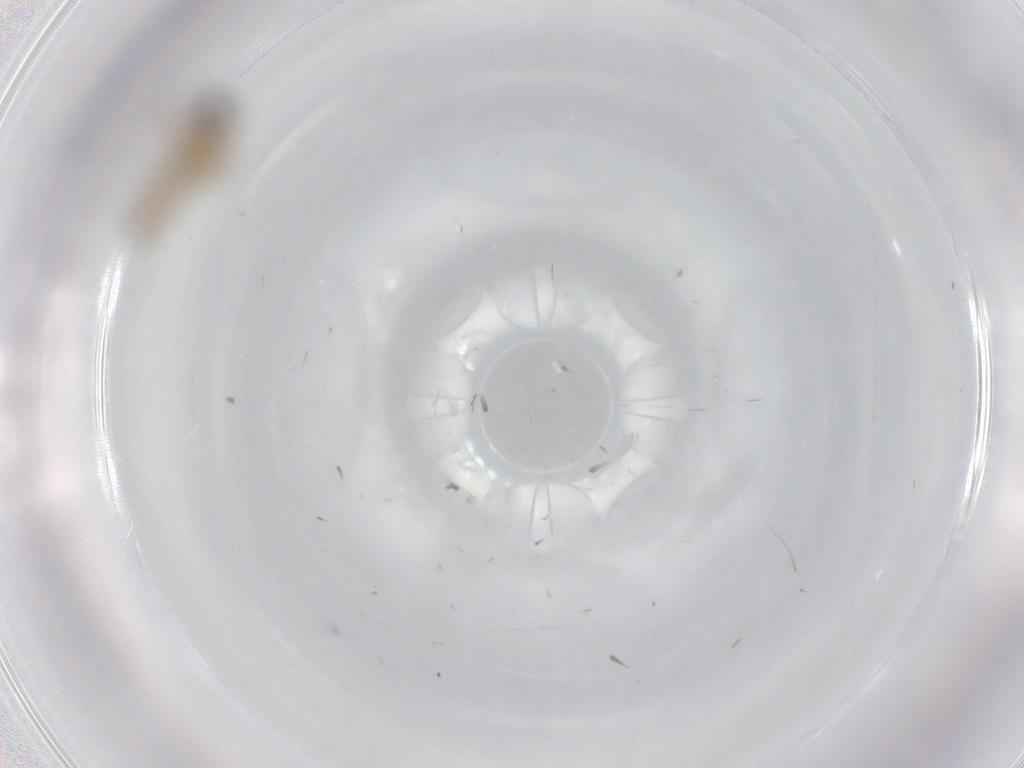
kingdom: Animalia
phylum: Arthropoda
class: Insecta
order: Diptera
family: Cecidomyiidae
